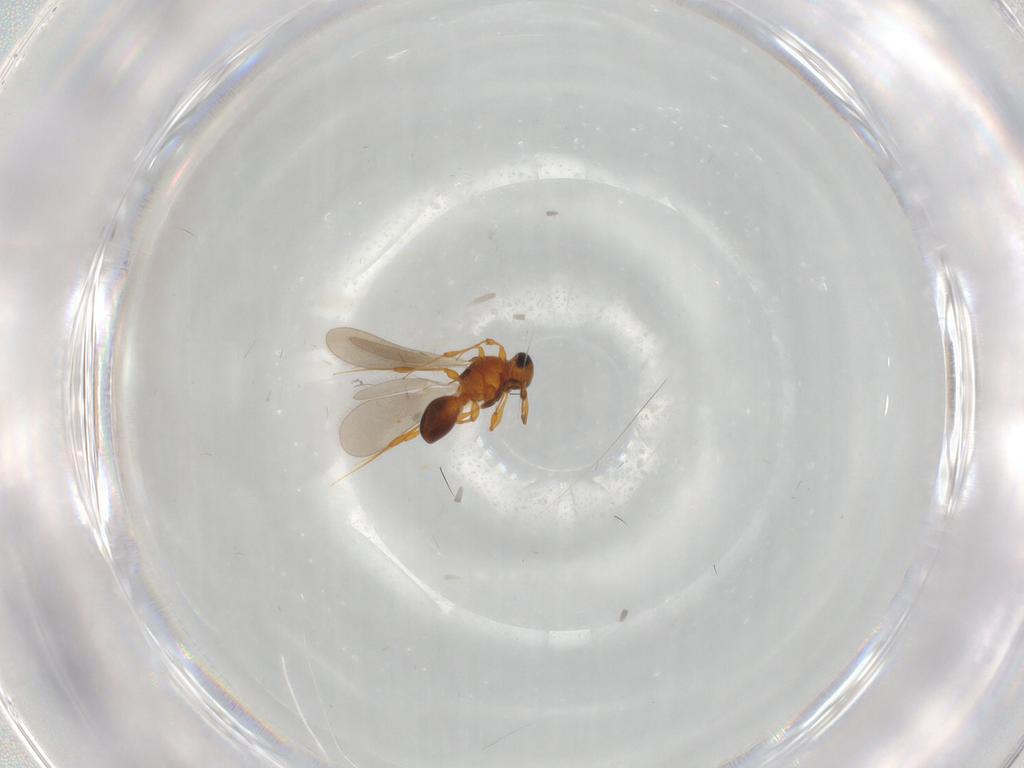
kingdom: Animalia
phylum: Arthropoda
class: Insecta
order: Hymenoptera
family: Platygastridae
